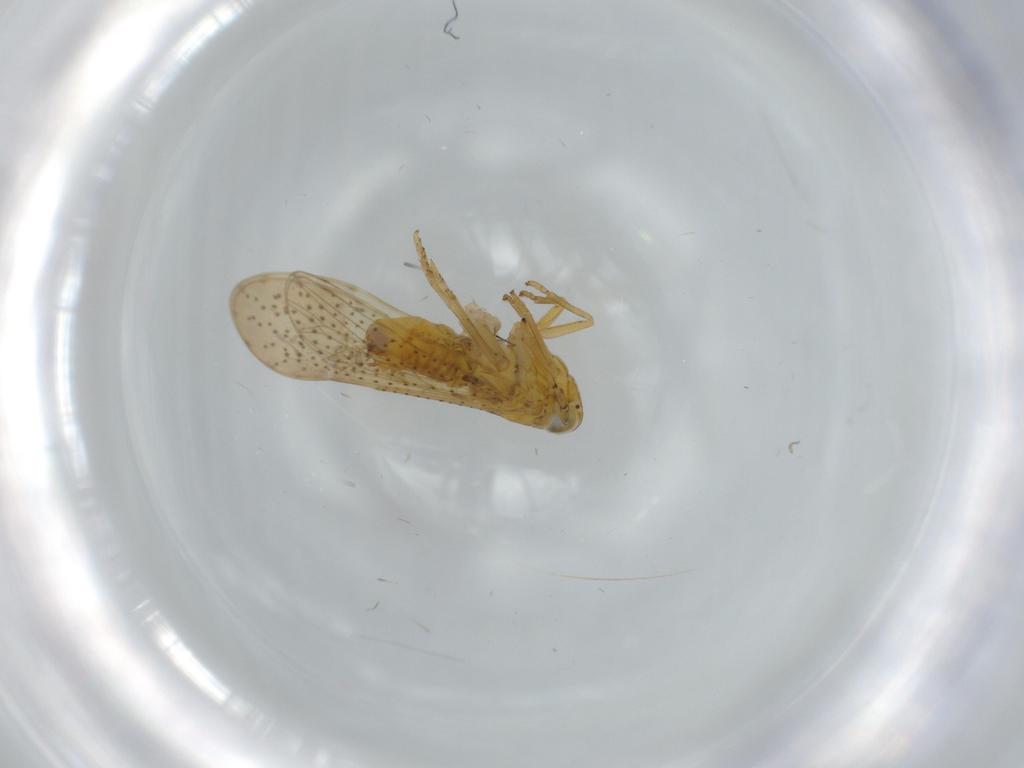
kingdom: Animalia
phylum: Arthropoda
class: Insecta
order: Hemiptera
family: Delphacidae
